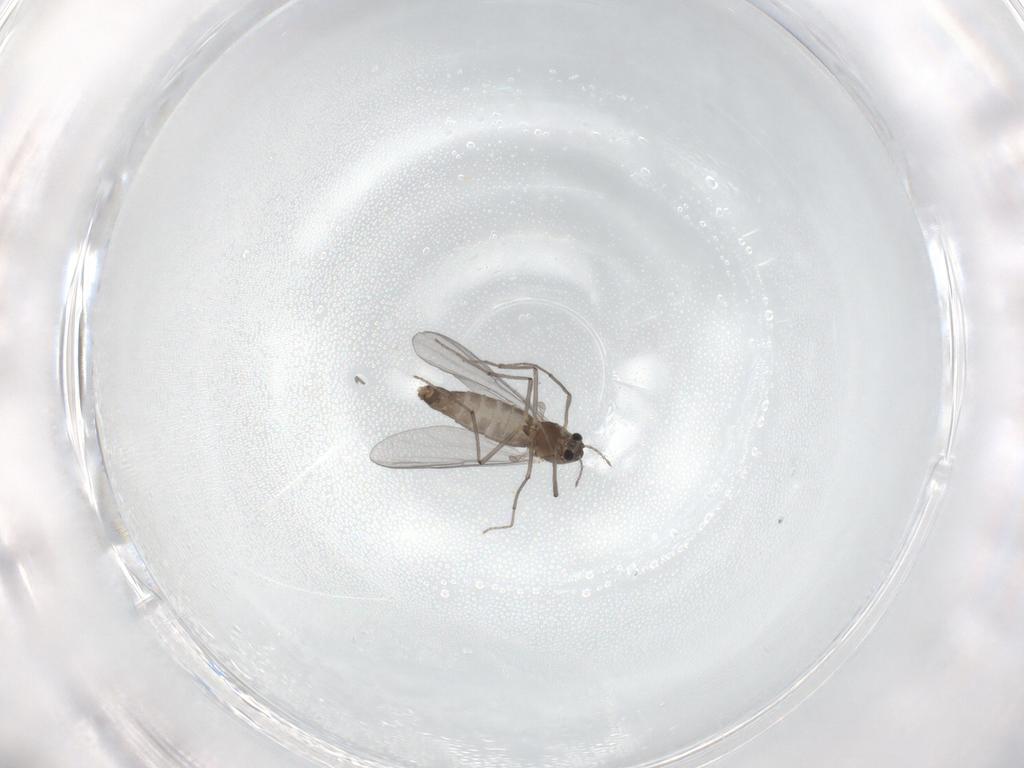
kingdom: Animalia
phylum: Arthropoda
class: Insecta
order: Diptera
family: Chironomidae
